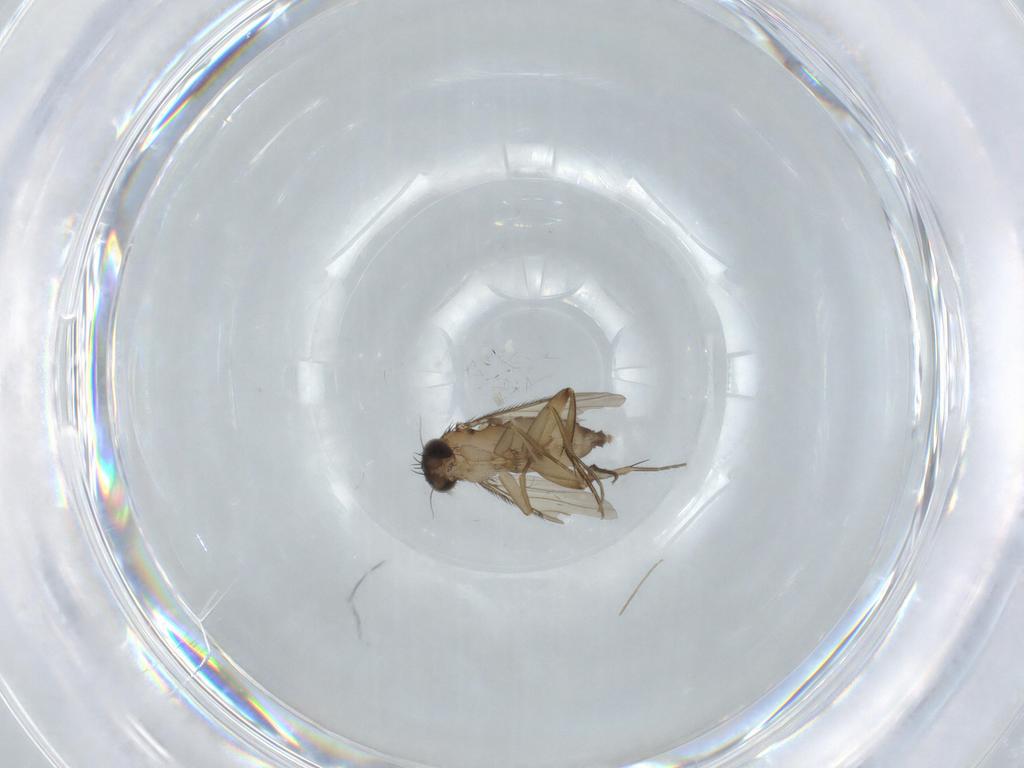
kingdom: Animalia
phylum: Arthropoda
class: Insecta
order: Diptera
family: Phoridae
